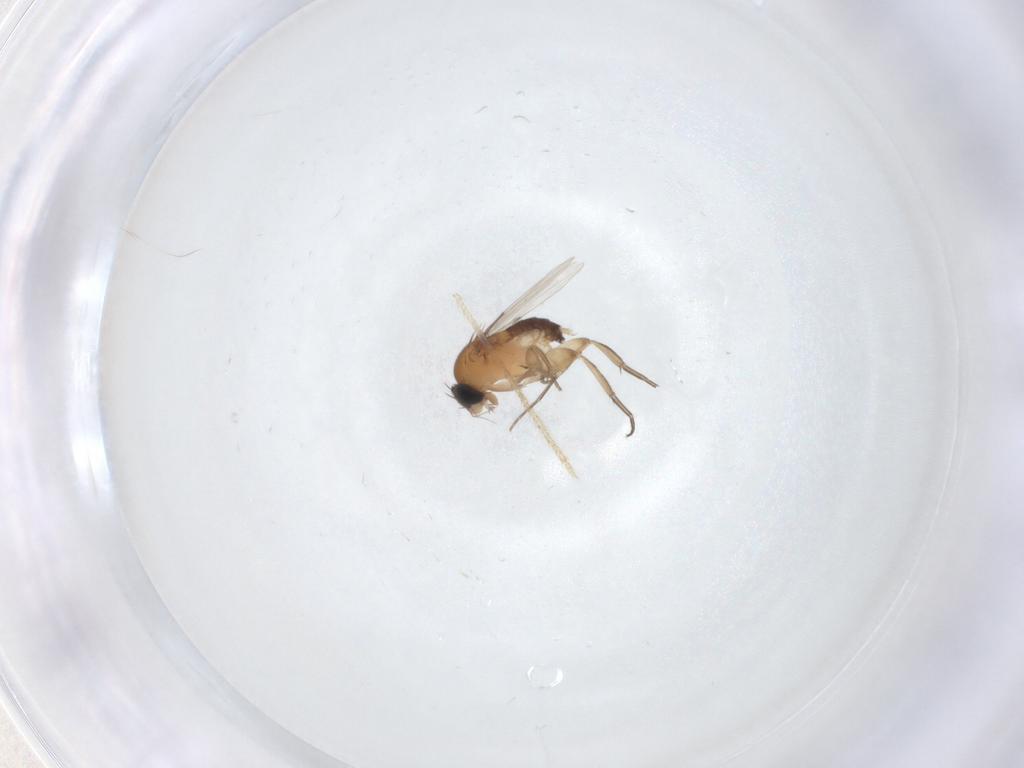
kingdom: Animalia
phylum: Arthropoda
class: Insecta
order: Diptera
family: Phoridae
